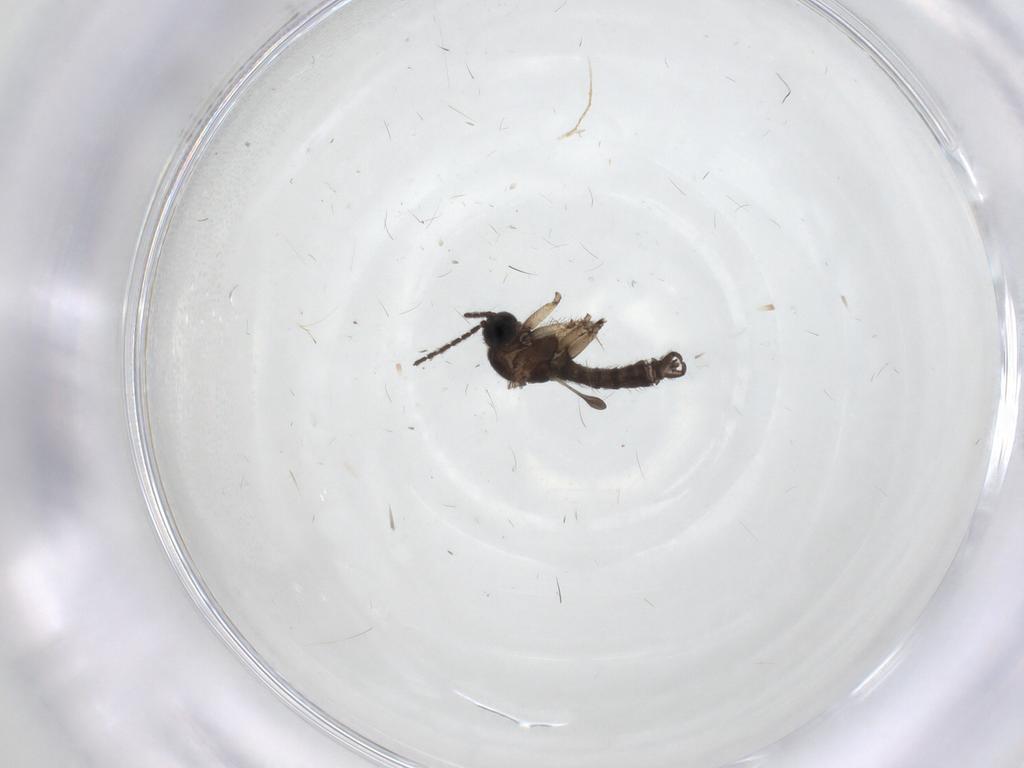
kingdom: Animalia
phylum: Arthropoda
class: Insecta
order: Diptera
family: Sciaridae
